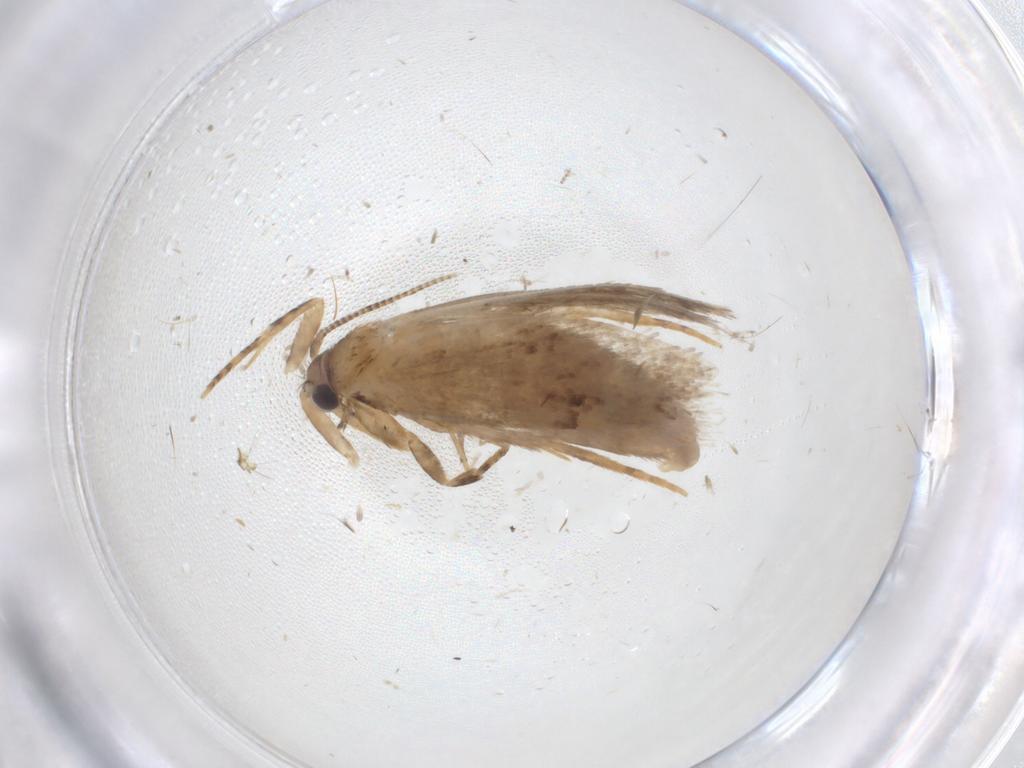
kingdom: Animalia
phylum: Arthropoda
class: Insecta
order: Lepidoptera
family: Tineidae
